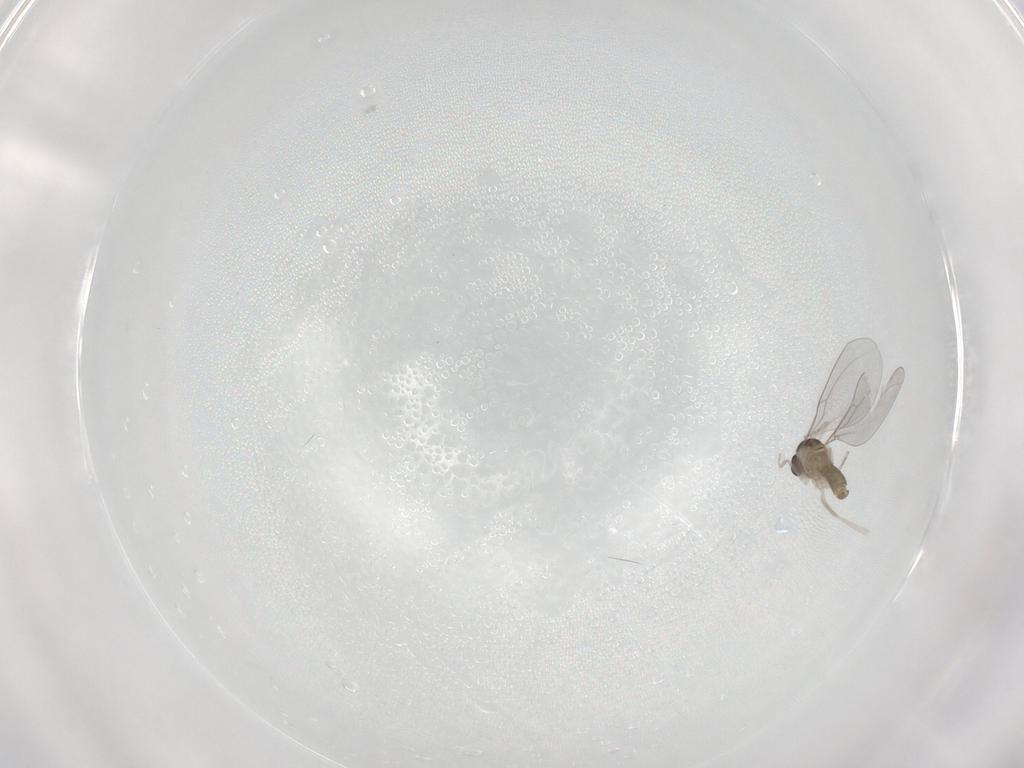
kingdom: Animalia
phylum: Arthropoda
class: Insecta
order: Diptera
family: Cecidomyiidae
